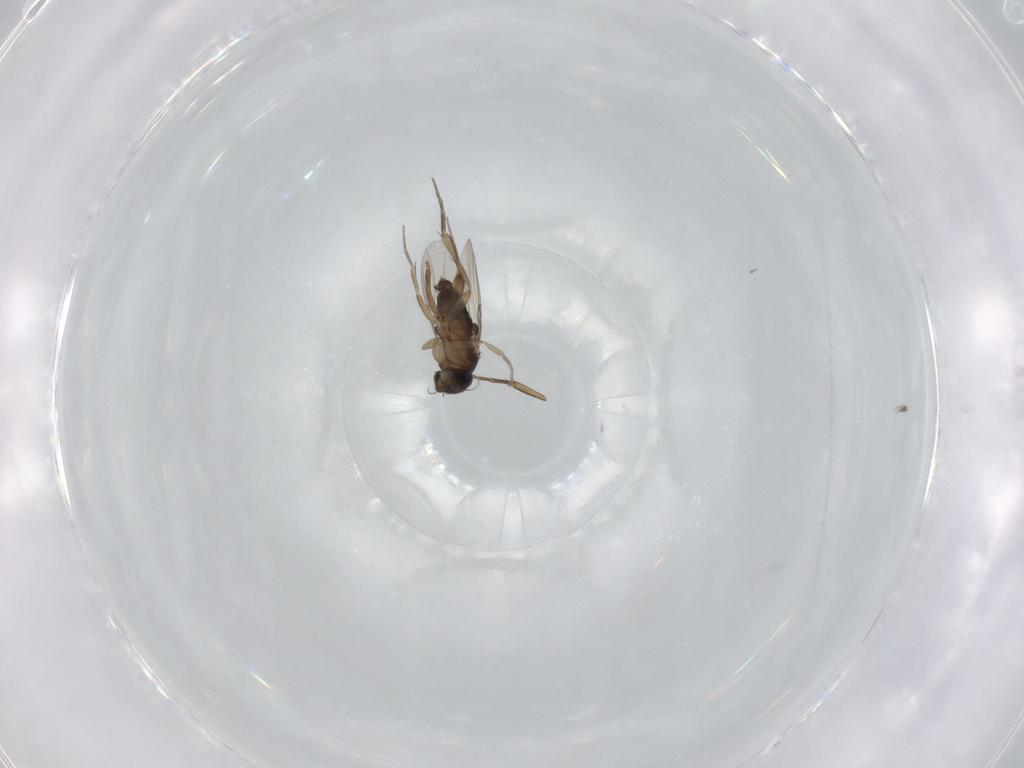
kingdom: Animalia
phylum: Arthropoda
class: Insecta
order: Diptera
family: Phoridae
